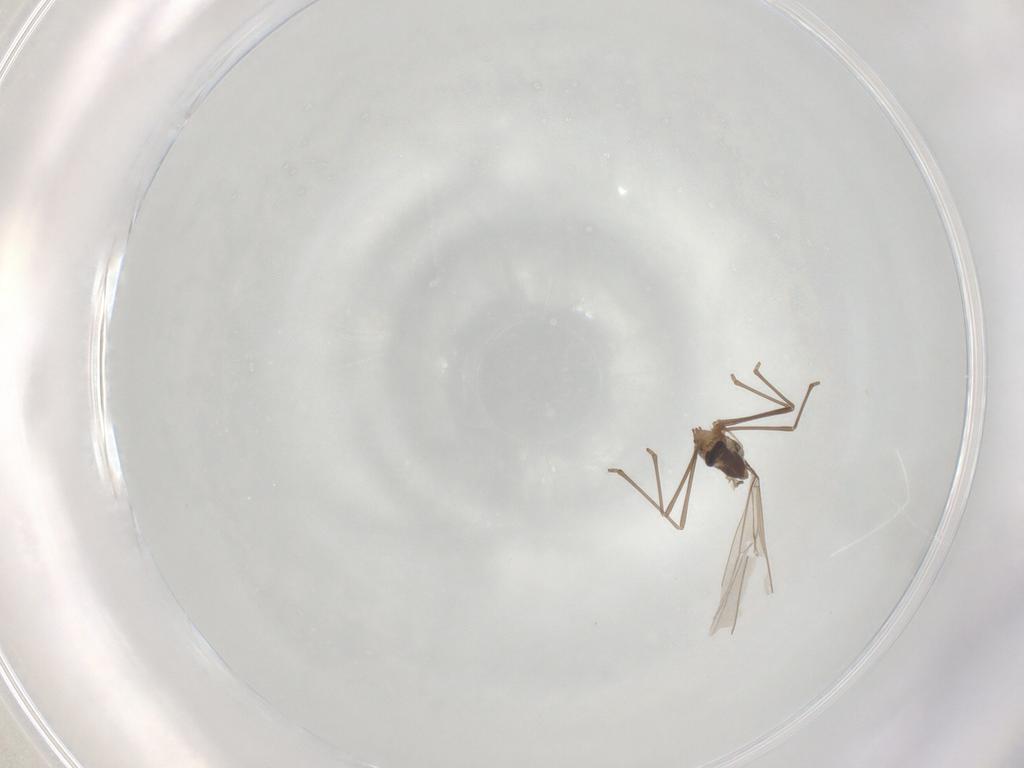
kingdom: Animalia
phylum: Arthropoda
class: Insecta
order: Diptera
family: Cecidomyiidae
